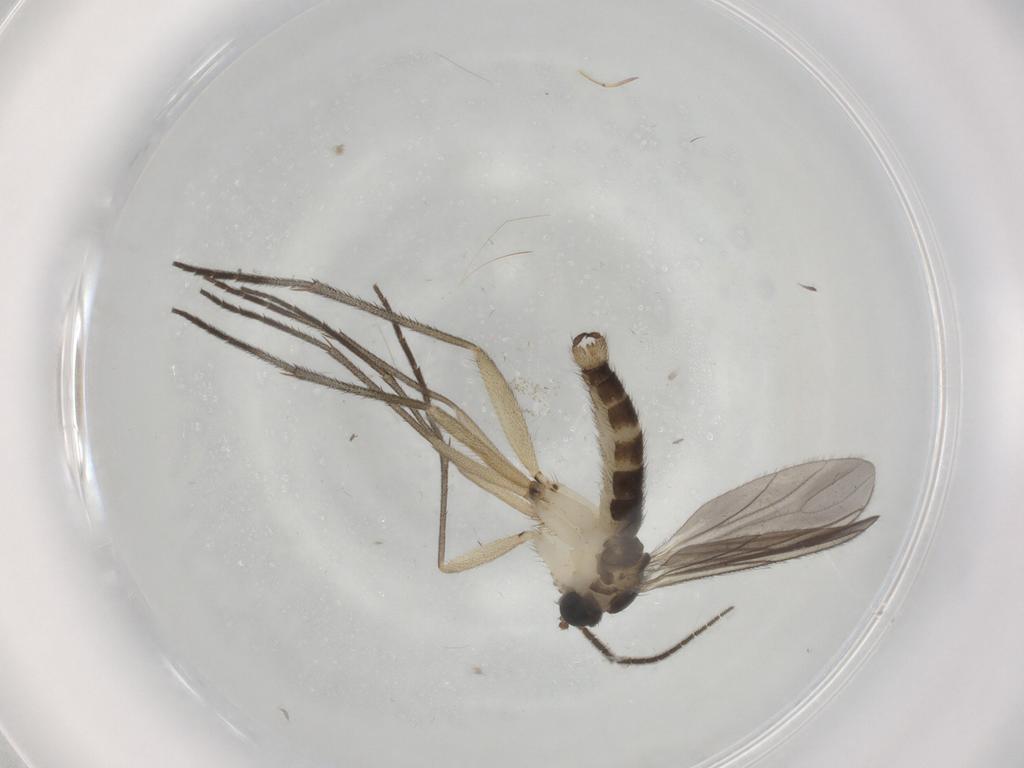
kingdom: Animalia
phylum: Arthropoda
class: Insecta
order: Diptera
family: Sciaridae
